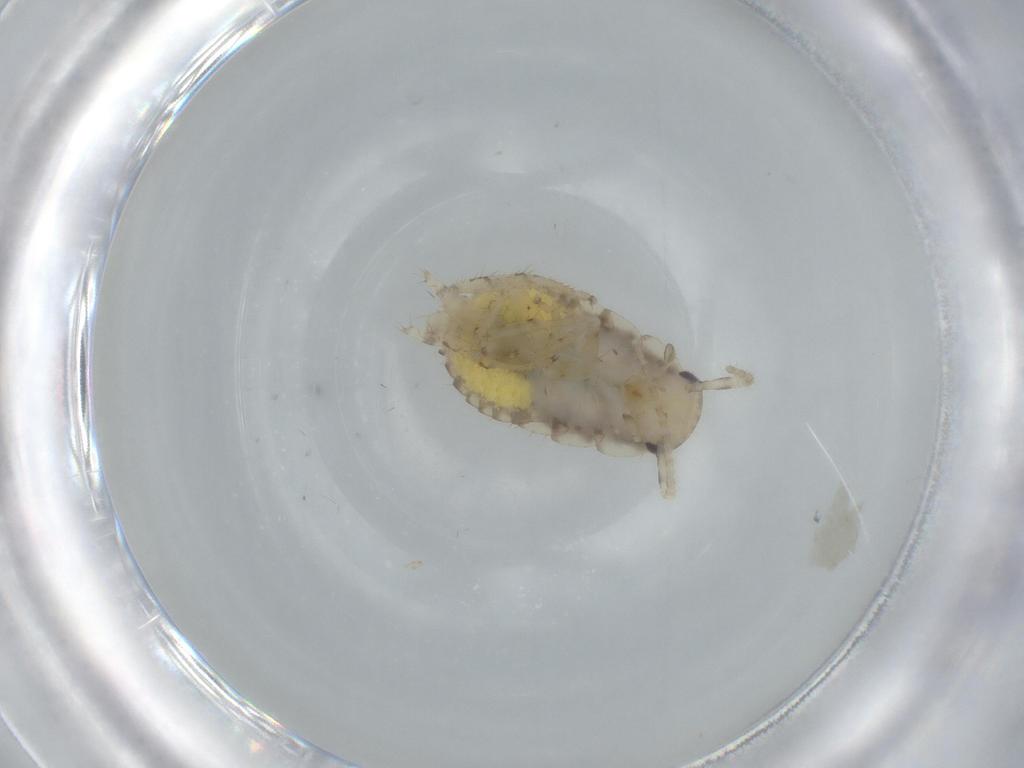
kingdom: Animalia
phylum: Arthropoda
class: Insecta
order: Blattodea
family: Ectobiidae
